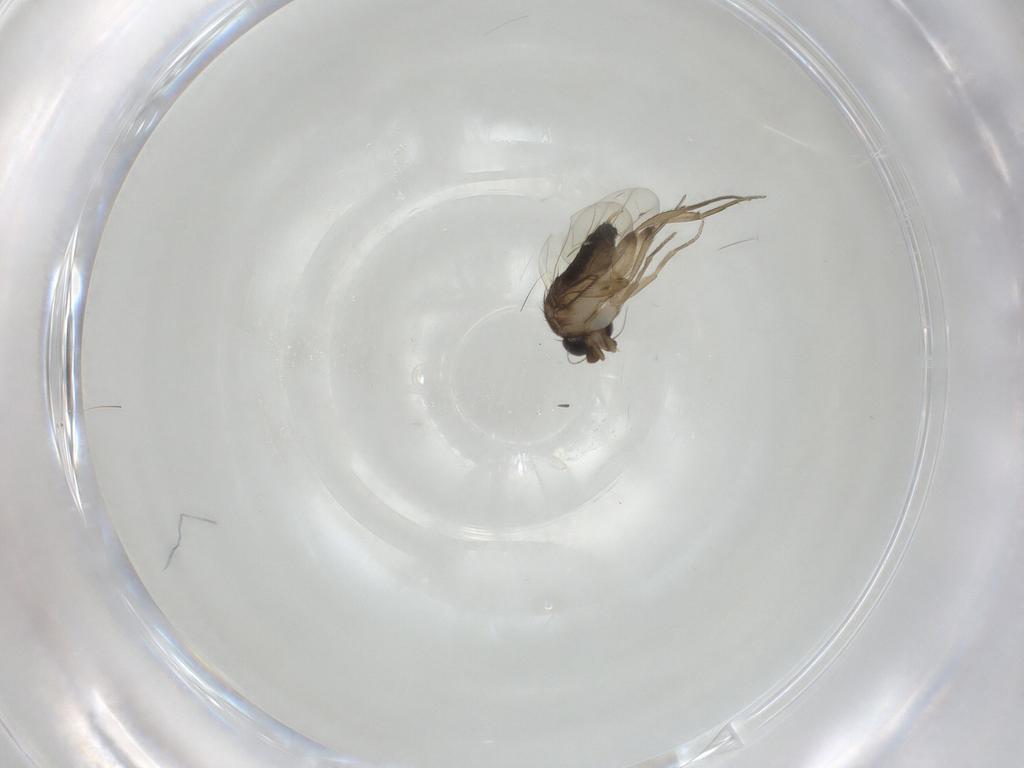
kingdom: Animalia
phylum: Arthropoda
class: Insecta
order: Diptera
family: Phoridae
